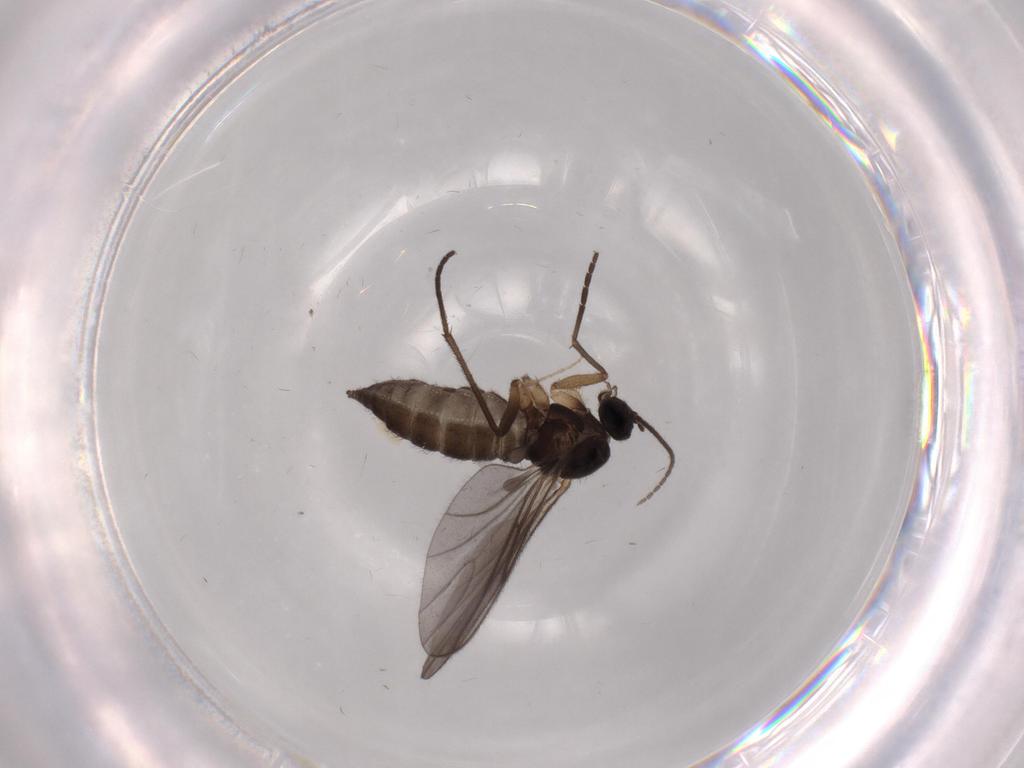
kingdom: Animalia
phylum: Arthropoda
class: Insecta
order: Diptera
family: Sciaridae
